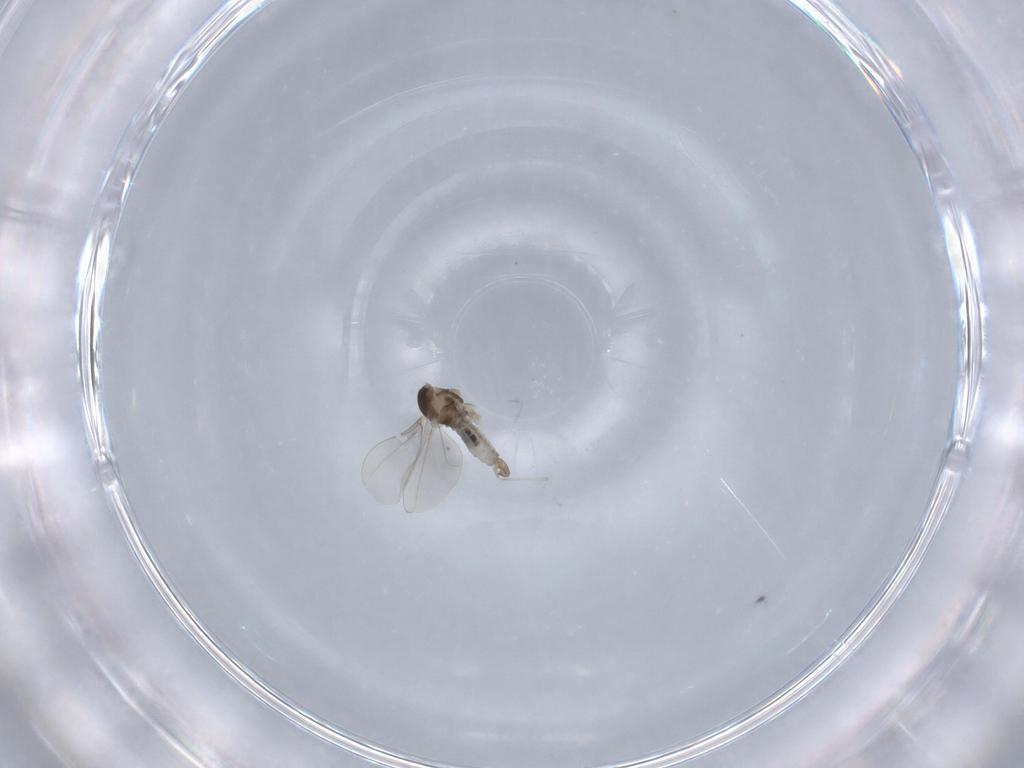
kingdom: Animalia
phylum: Arthropoda
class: Insecta
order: Diptera
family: Cecidomyiidae
